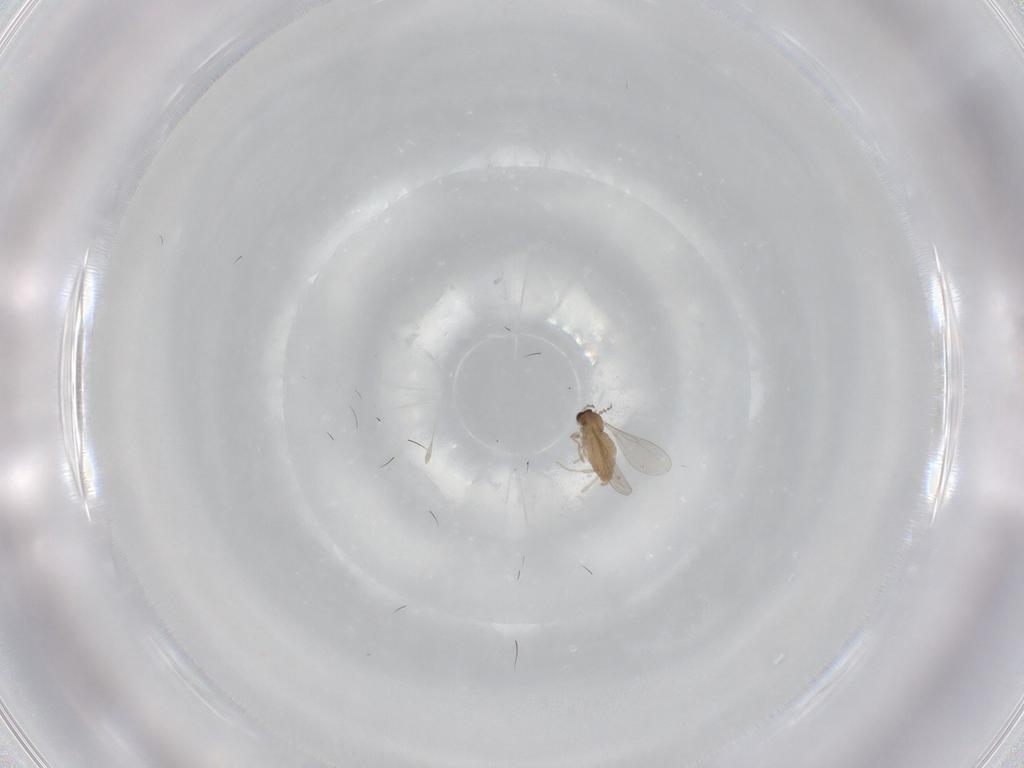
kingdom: Animalia
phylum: Arthropoda
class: Insecta
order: Diptera
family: Cecidomyiidae
